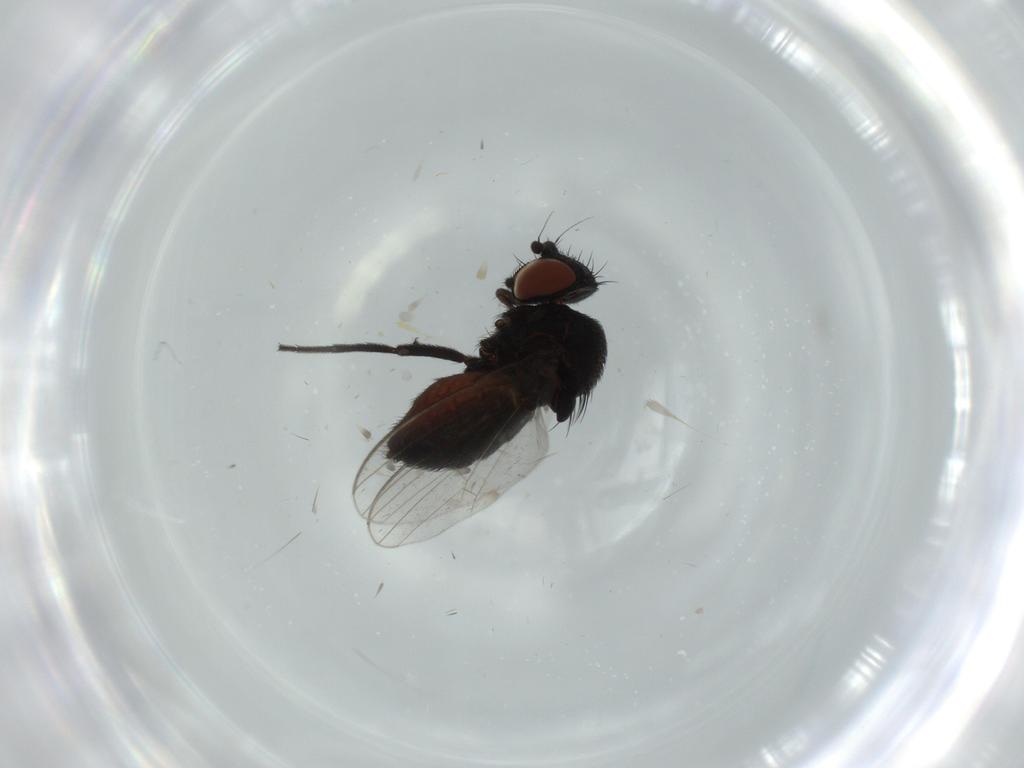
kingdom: Animalia
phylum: Arthropoda
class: Insecta
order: Diptera
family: Milichiidae
